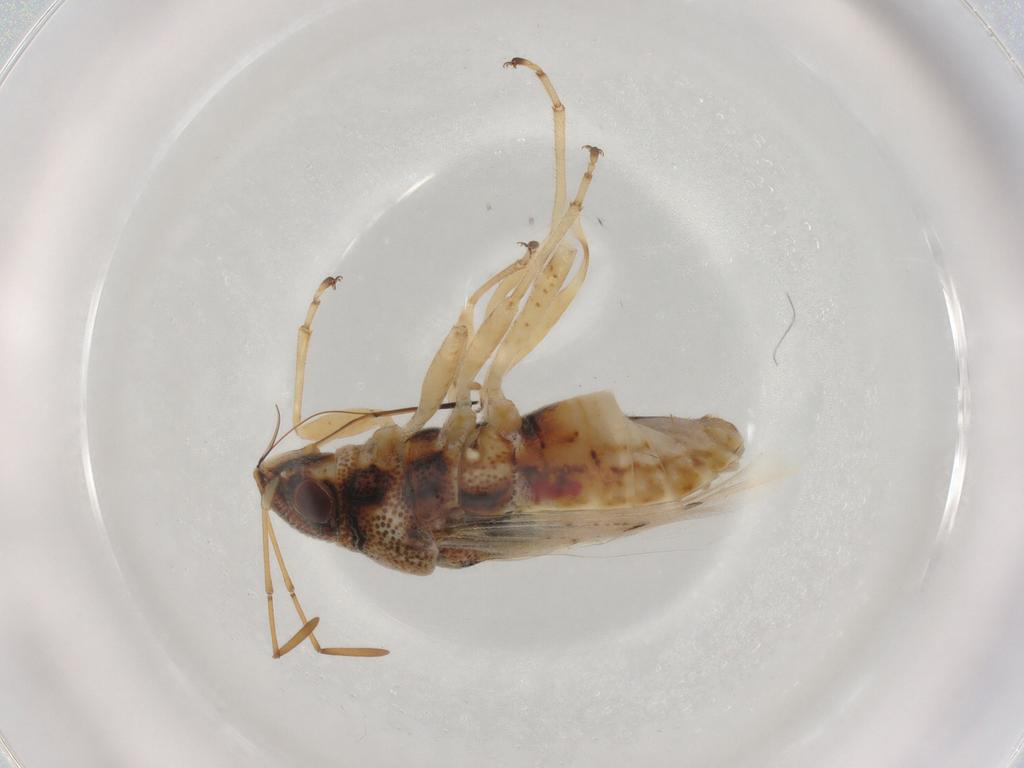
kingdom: Animalia
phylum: Arthropoda
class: Insecta
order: Hemiptera
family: Lygaeidae
